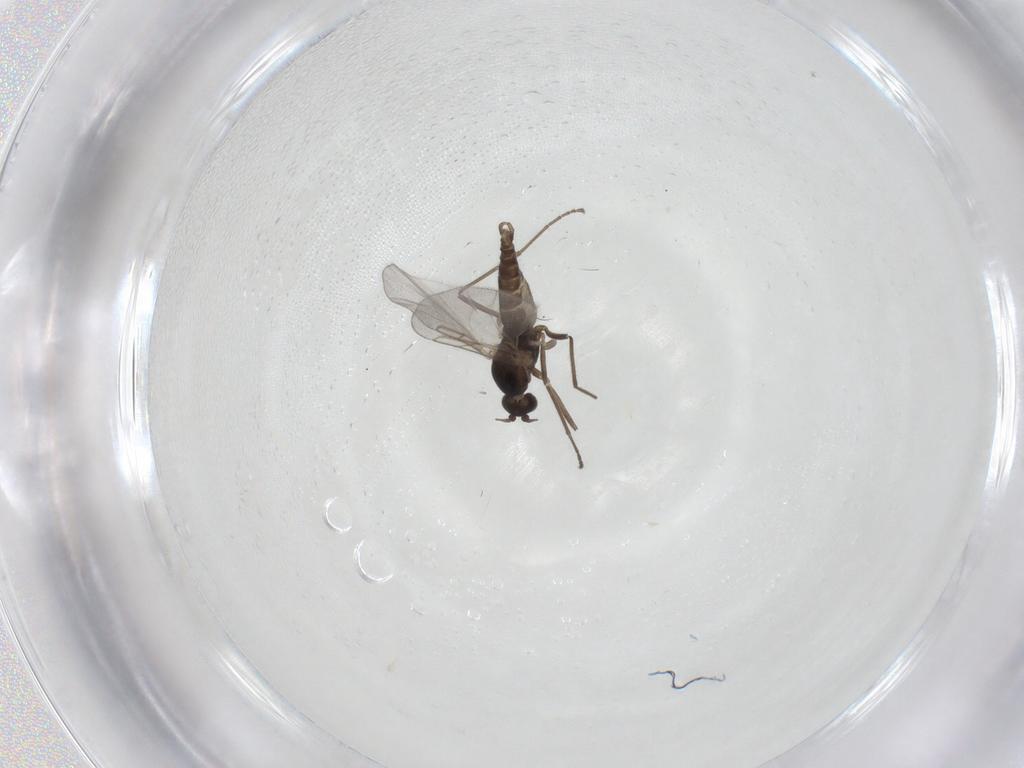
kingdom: Animalia
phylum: Arthropoda
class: Insecta
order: Diptera
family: Cecidomyiidae
